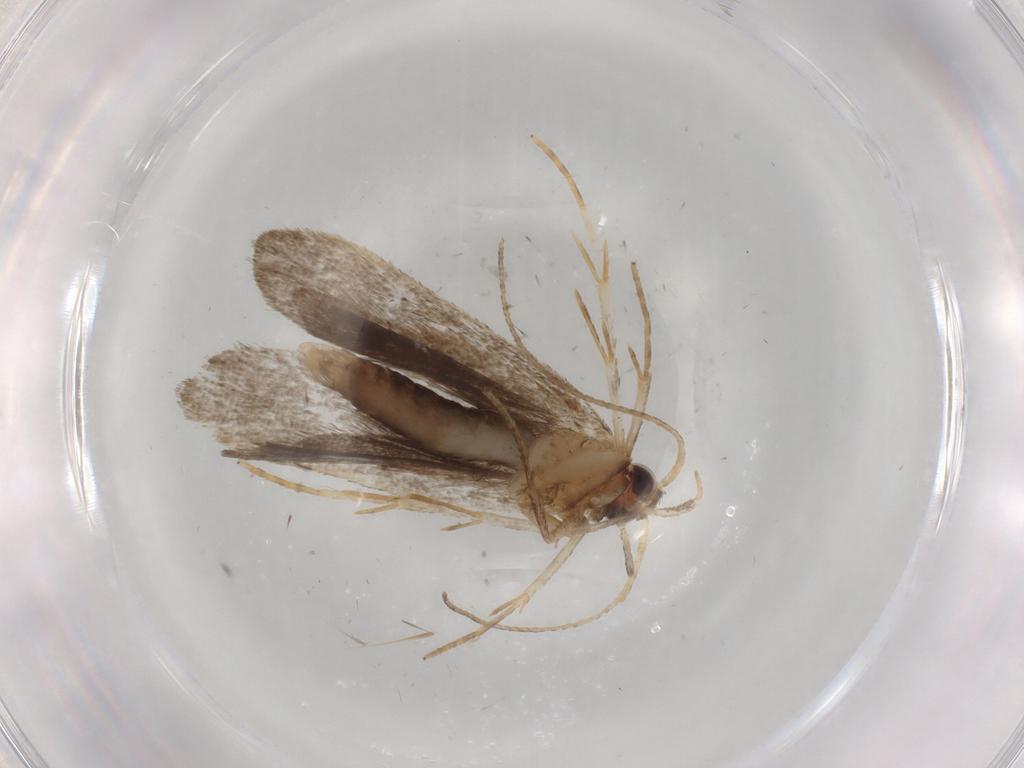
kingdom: Animalia
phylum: Arthropoda
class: Insecta
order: Lepidoptera
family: Gelechiidae
